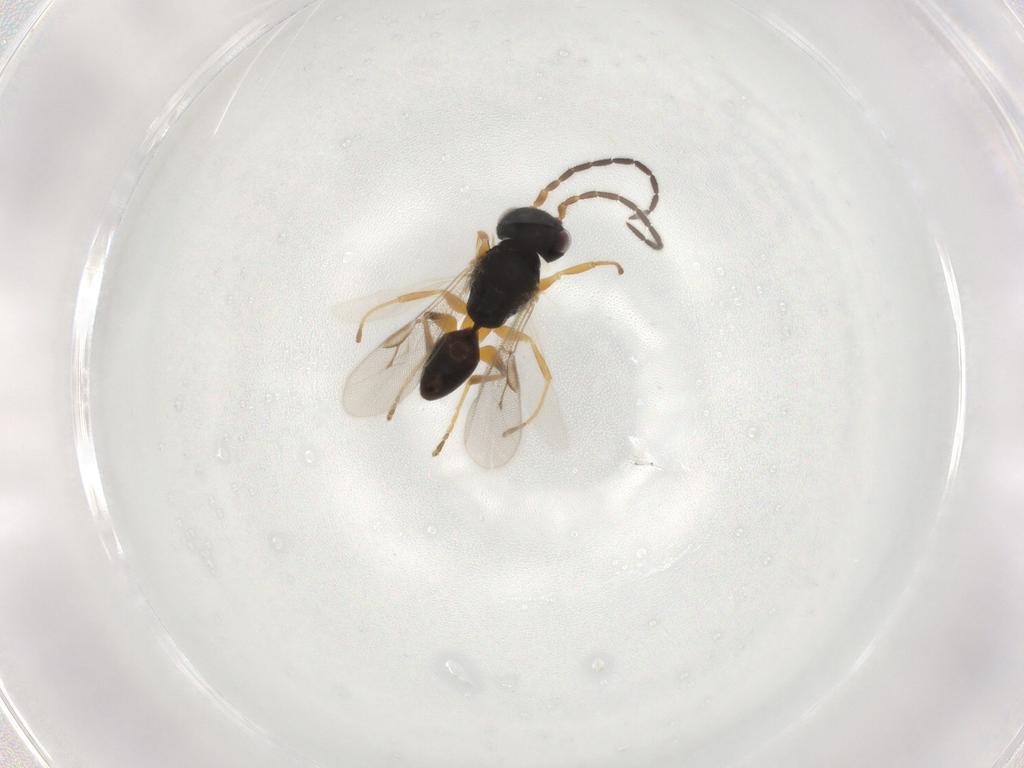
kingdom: Animalia
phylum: Arthropoda
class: Insecta
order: Hymenoptera
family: Dryinidae
